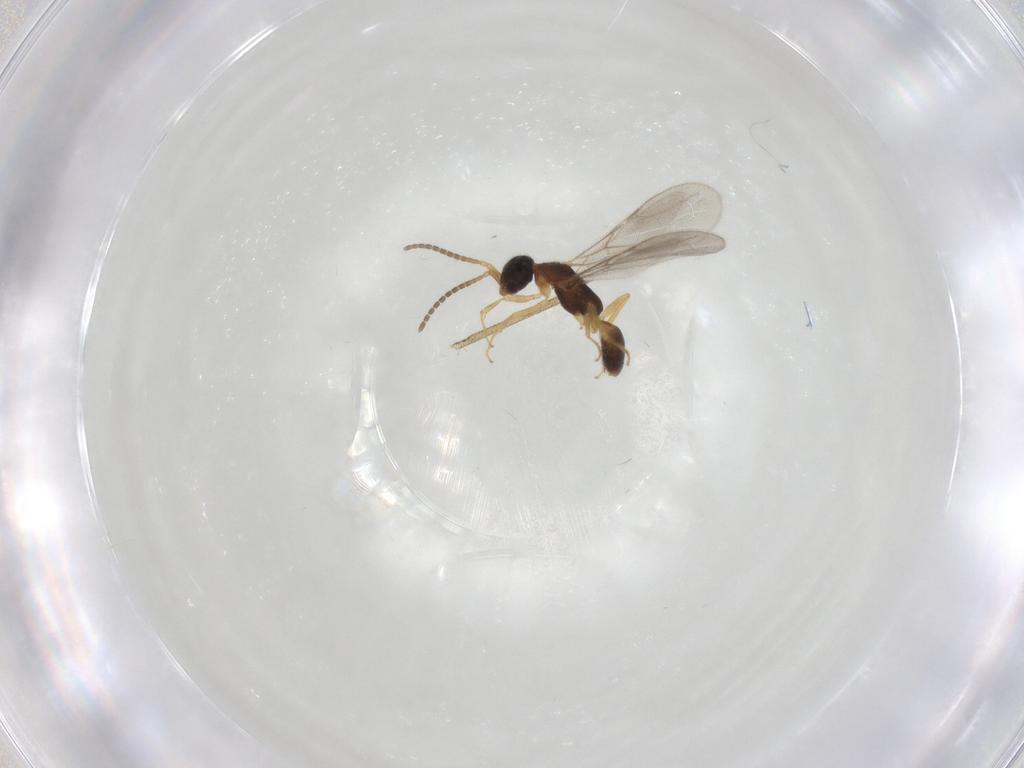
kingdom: Animalia
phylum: Arthropoda
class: Insecta
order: Hymenoptera
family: Bethylidae
